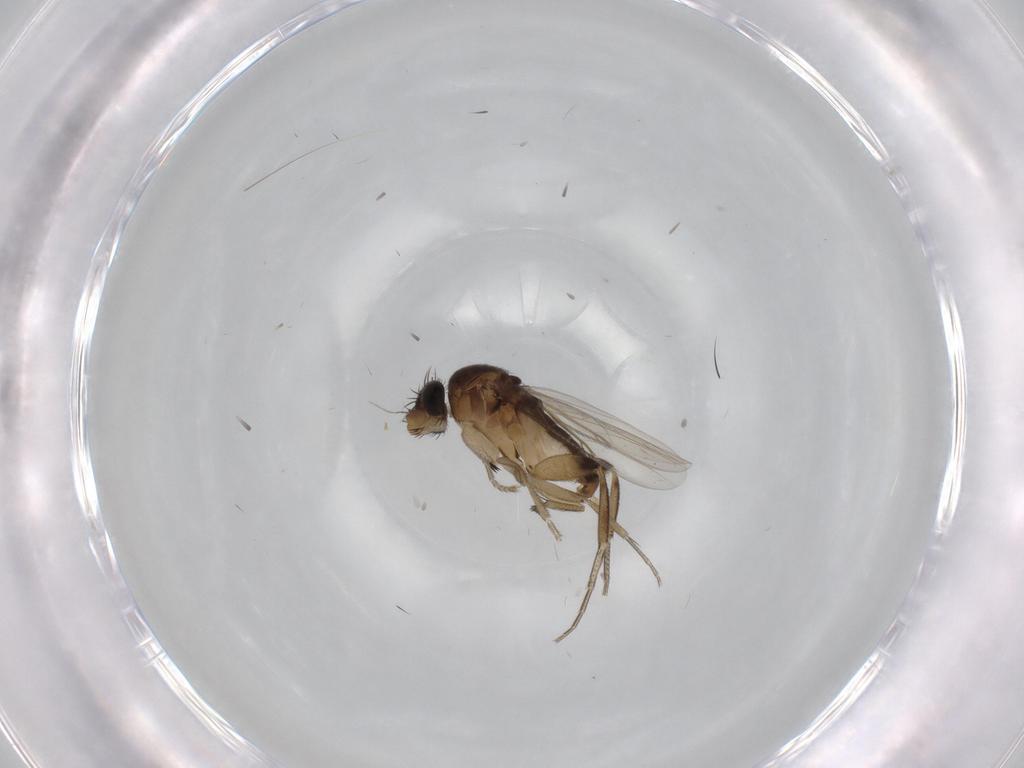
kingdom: Animalia
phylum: Arthropoda
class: Insecta
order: Diptera
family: Phoridae
